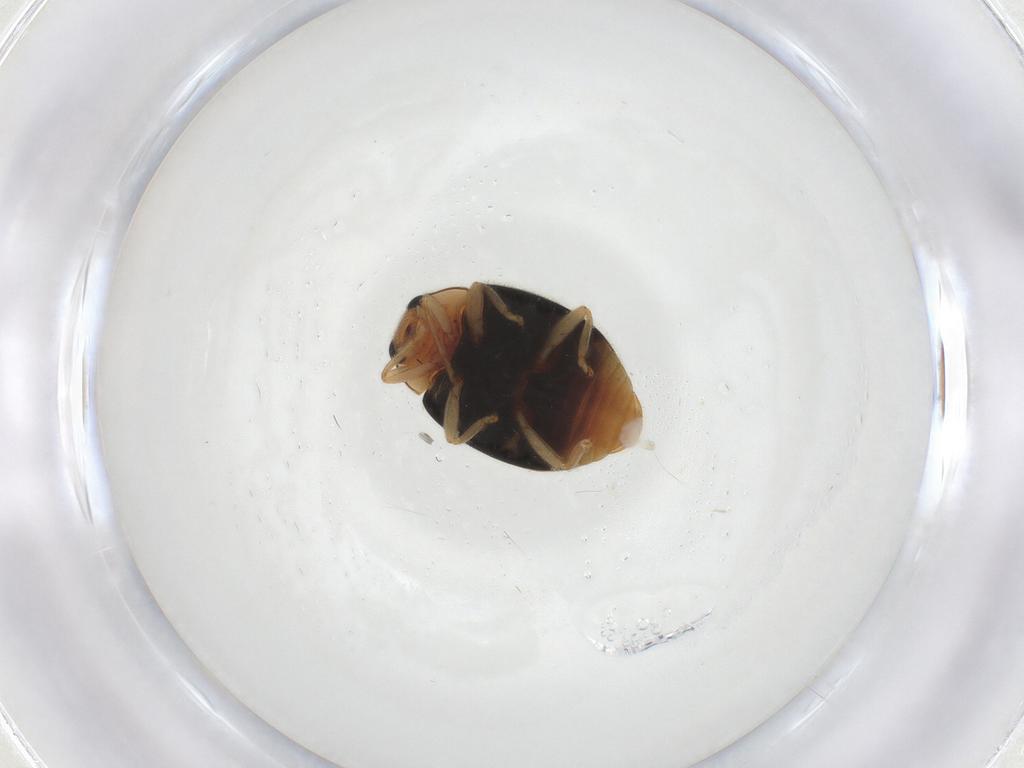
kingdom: Animalia
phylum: Arthropoda
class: Insecta
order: Coleoptera
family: Coccinellidae
